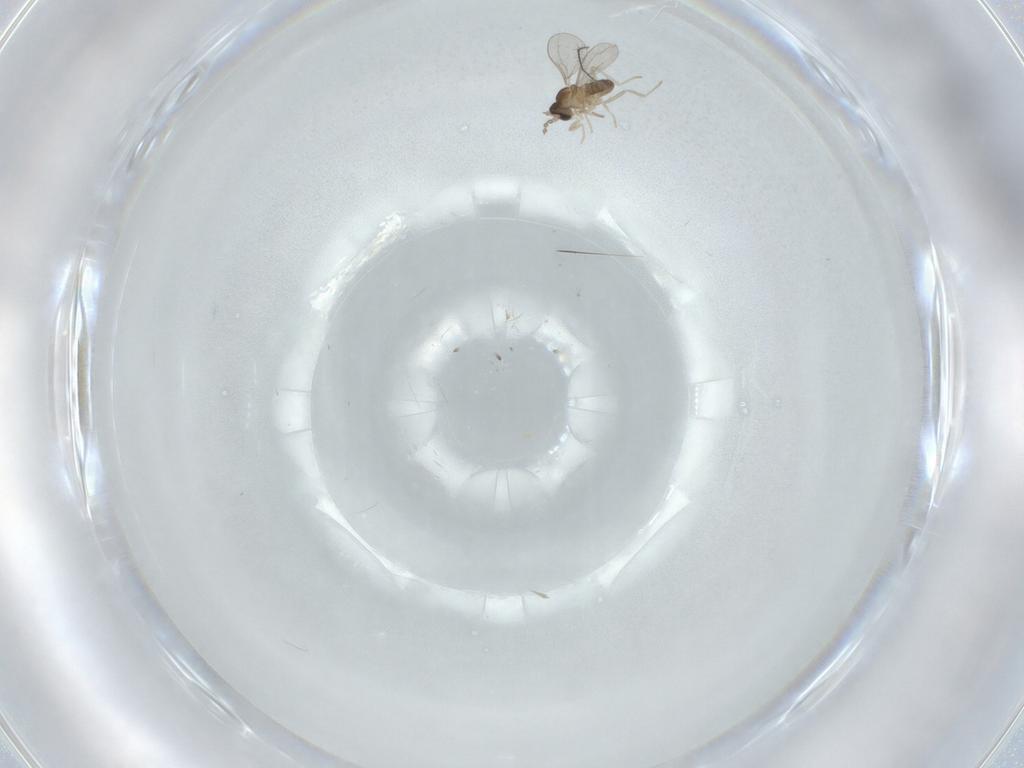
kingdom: Animalia
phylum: Arthropoda
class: Insecta
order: Diptera
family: Cecidomyiidae
